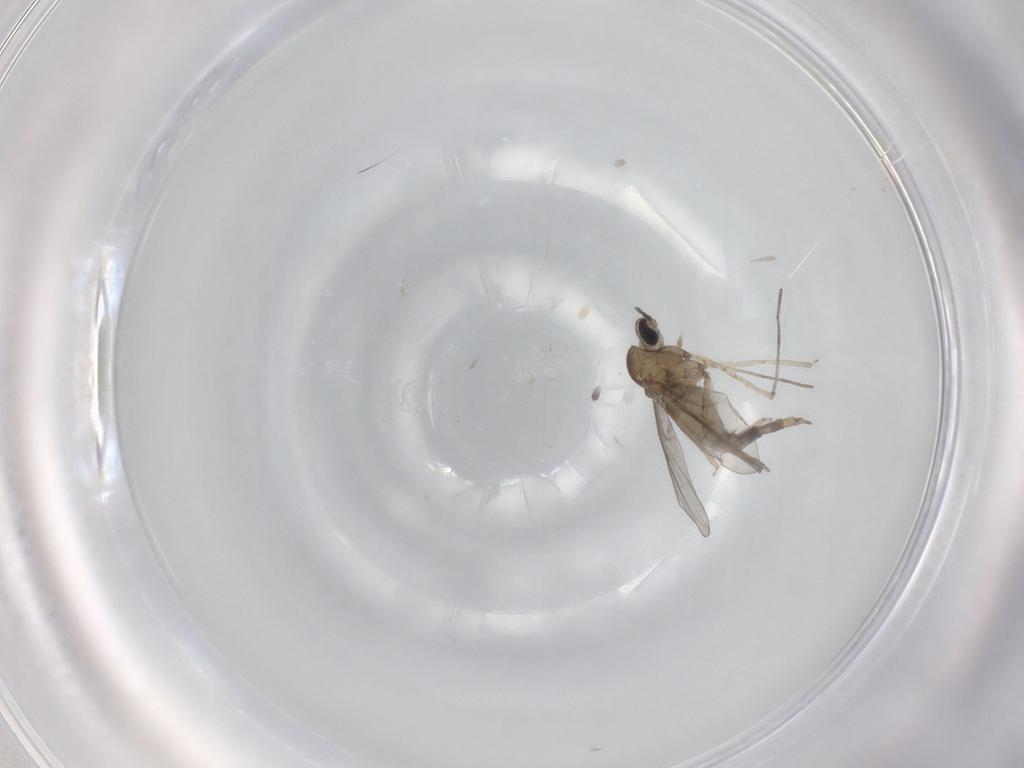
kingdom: Animalia
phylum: Arthropoda
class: Insecta
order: Diptera
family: Cecidomyiidae
